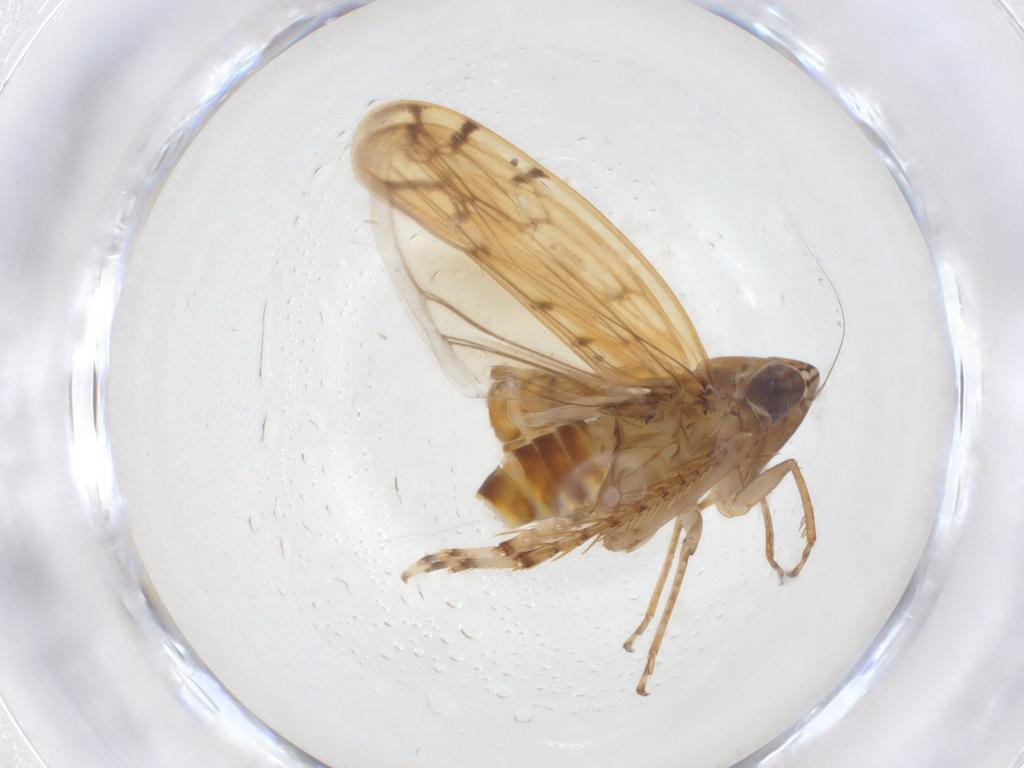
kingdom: Animalia
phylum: Arthropoda
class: Insecta
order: Hemiptera
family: Cicadellidae
